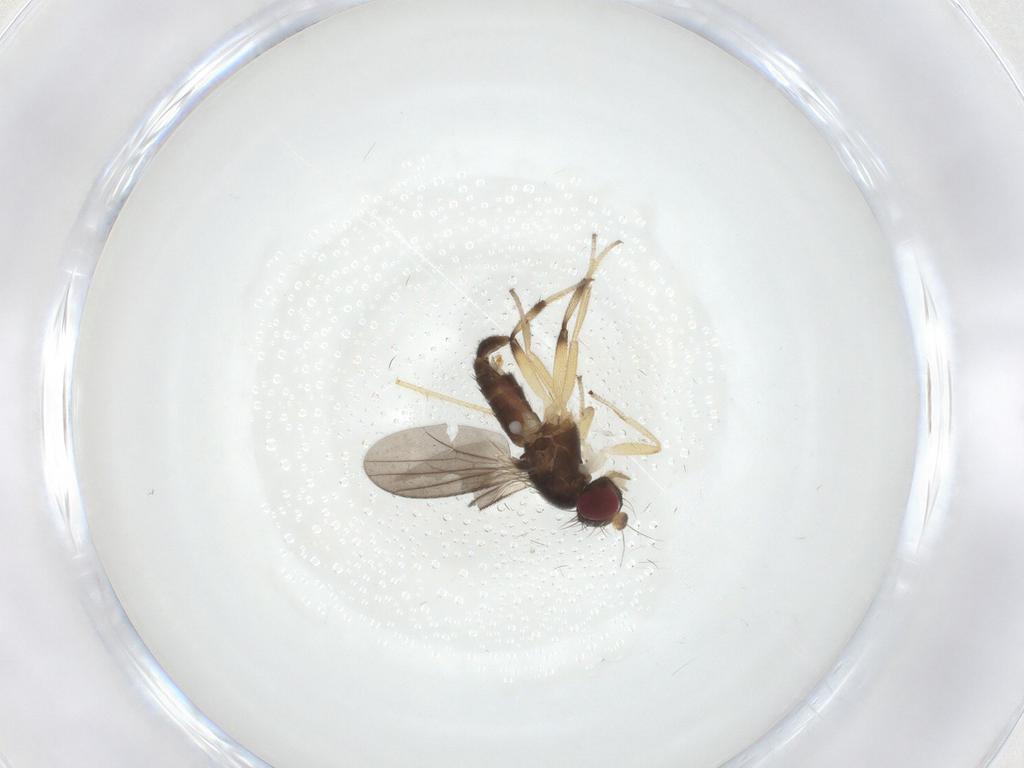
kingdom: Animalia
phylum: Arthropoda
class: Insecta
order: Diptera
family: Clusiidae
